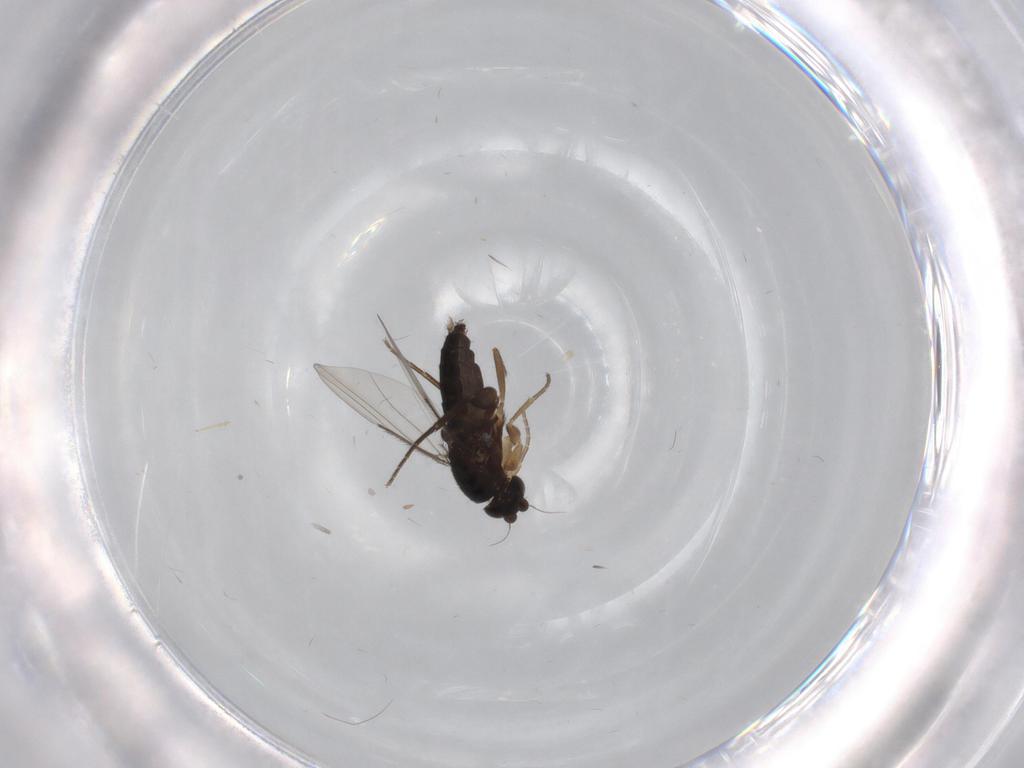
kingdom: Animalia
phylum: Arthropoda
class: Insecta
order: Diptera
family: Phoridae
